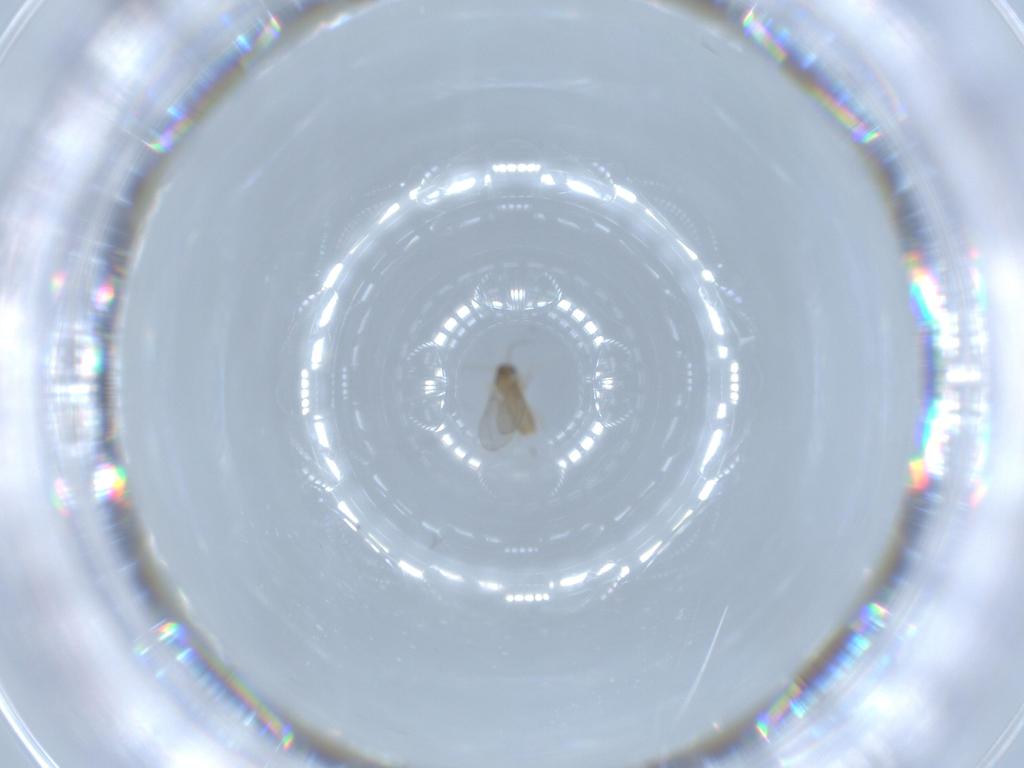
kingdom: Animalia
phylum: Arthropoda
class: Insecta
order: Diptera
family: Cecidomyiidae
